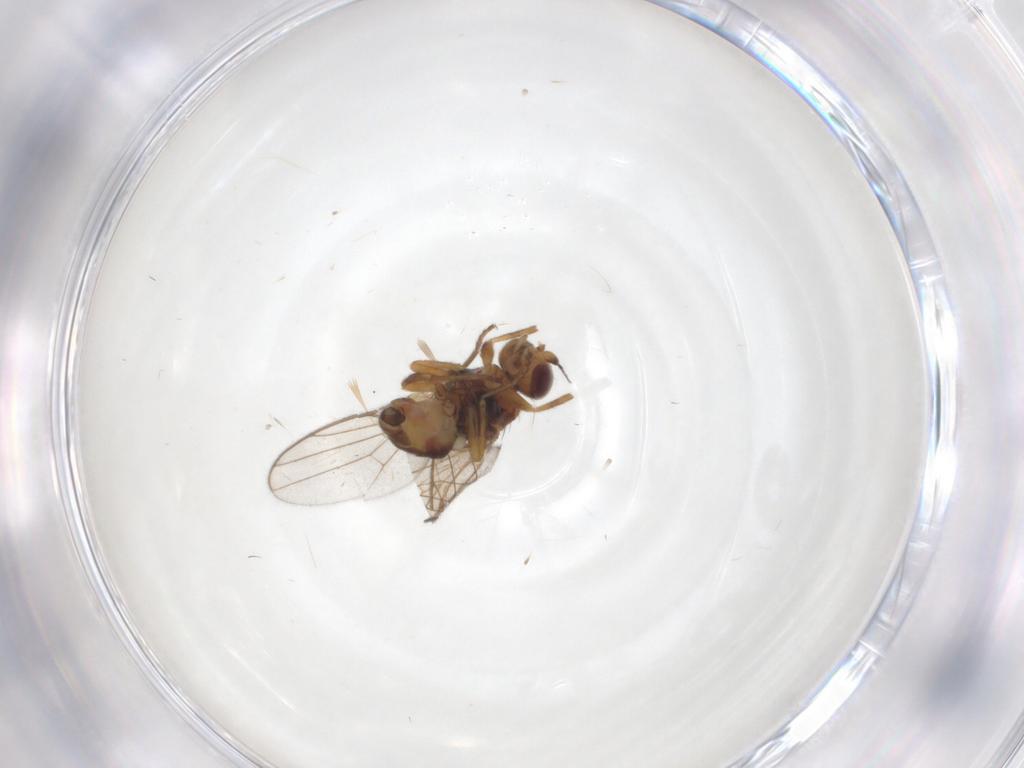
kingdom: Animalia
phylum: Arthropoda
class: Insecta
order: Diptera
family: Chloropidae
